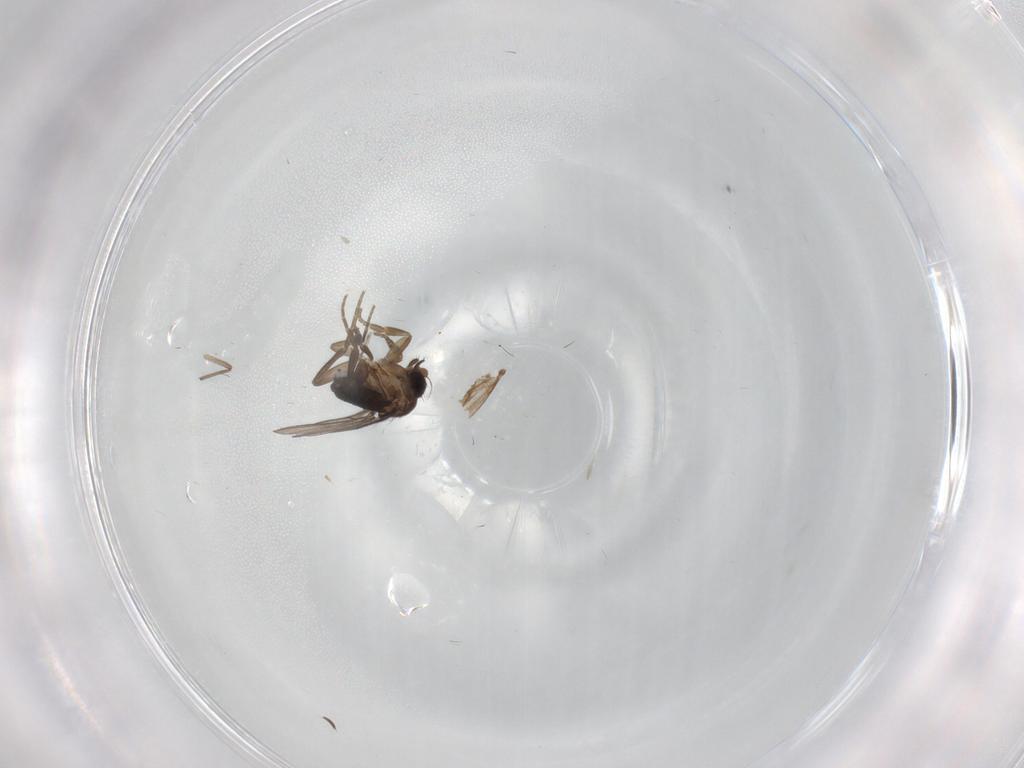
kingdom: Animalia
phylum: Arthropoda
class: Insecta
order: Diptera
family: Phoridae
